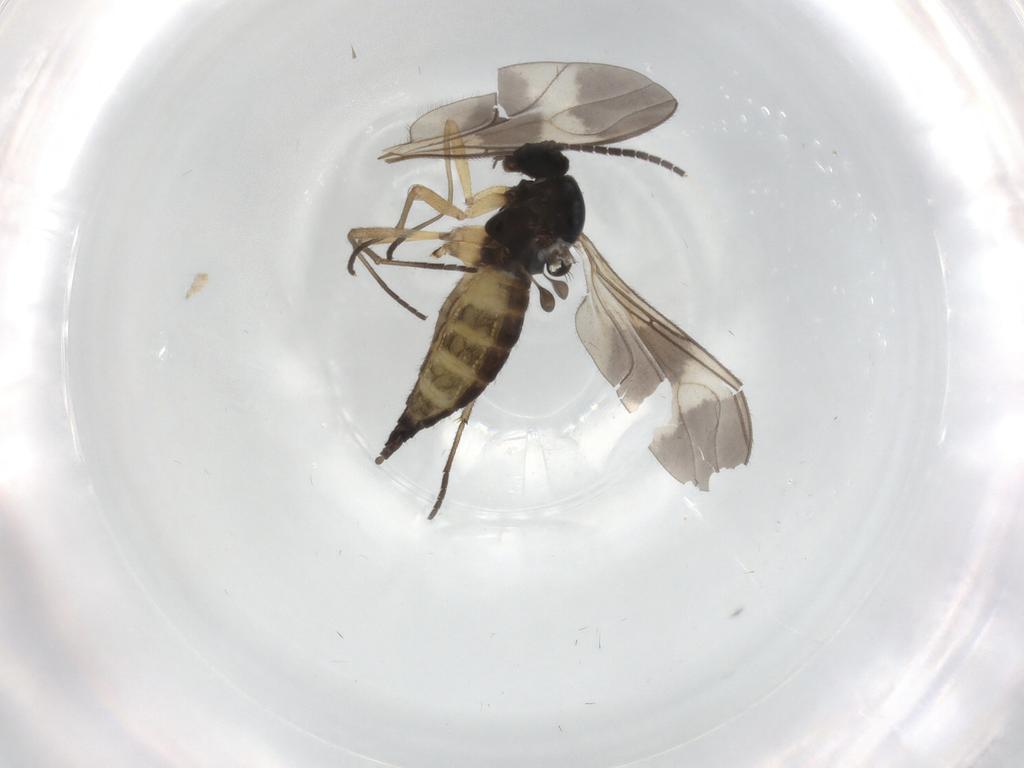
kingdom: Animalia
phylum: Arthropoda
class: Insecta
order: Diptera
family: Sciaridae
